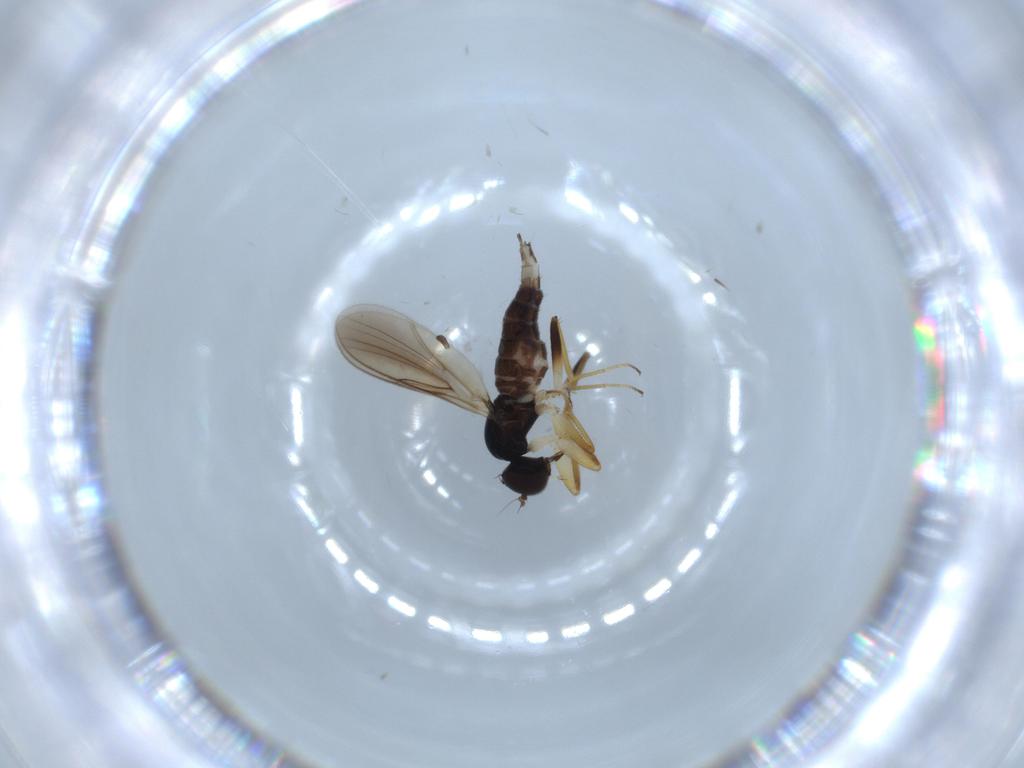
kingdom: Animalia
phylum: Arthropoda
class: Insecta
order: Diptera
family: Hybotidae
